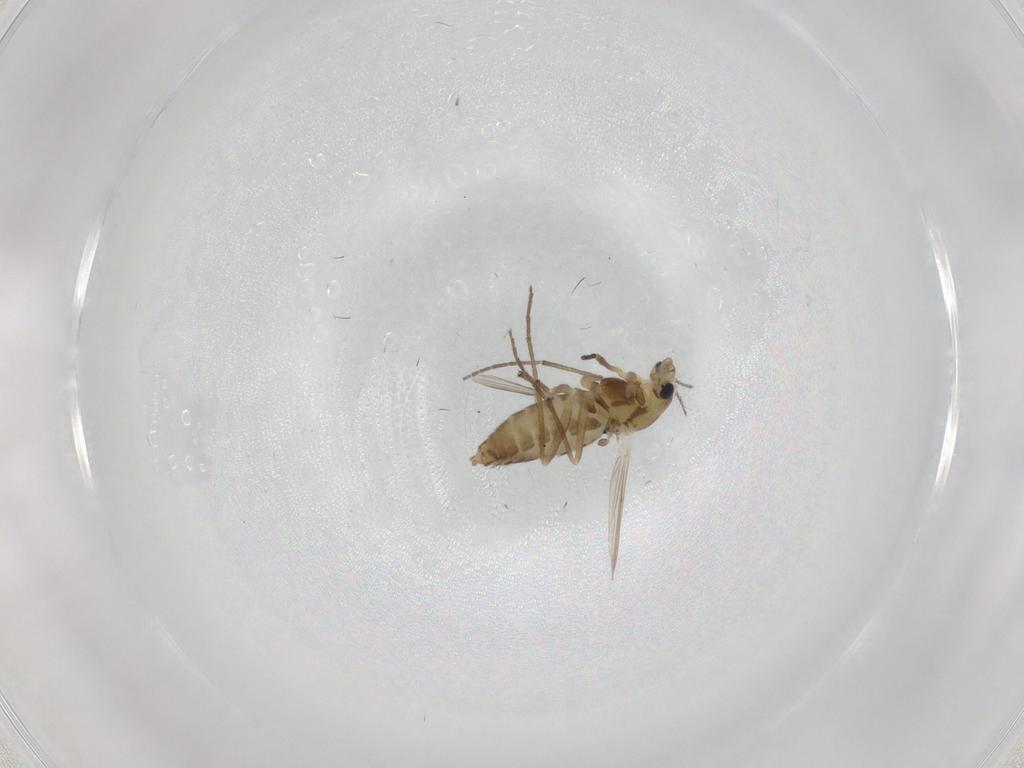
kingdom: Animalia
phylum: Arthropoda
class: Insecta
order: Diptera
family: Chironomidae
